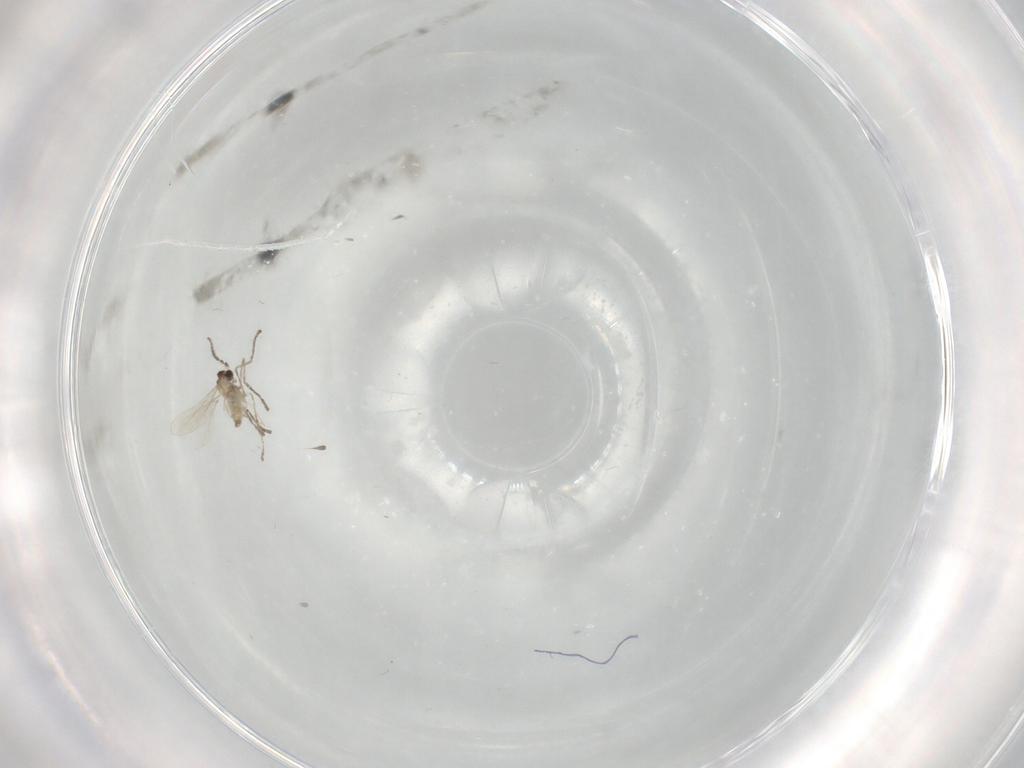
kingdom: Animalia
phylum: Arthropoda
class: Insecta
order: Diptera
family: Cecidomyiidae
